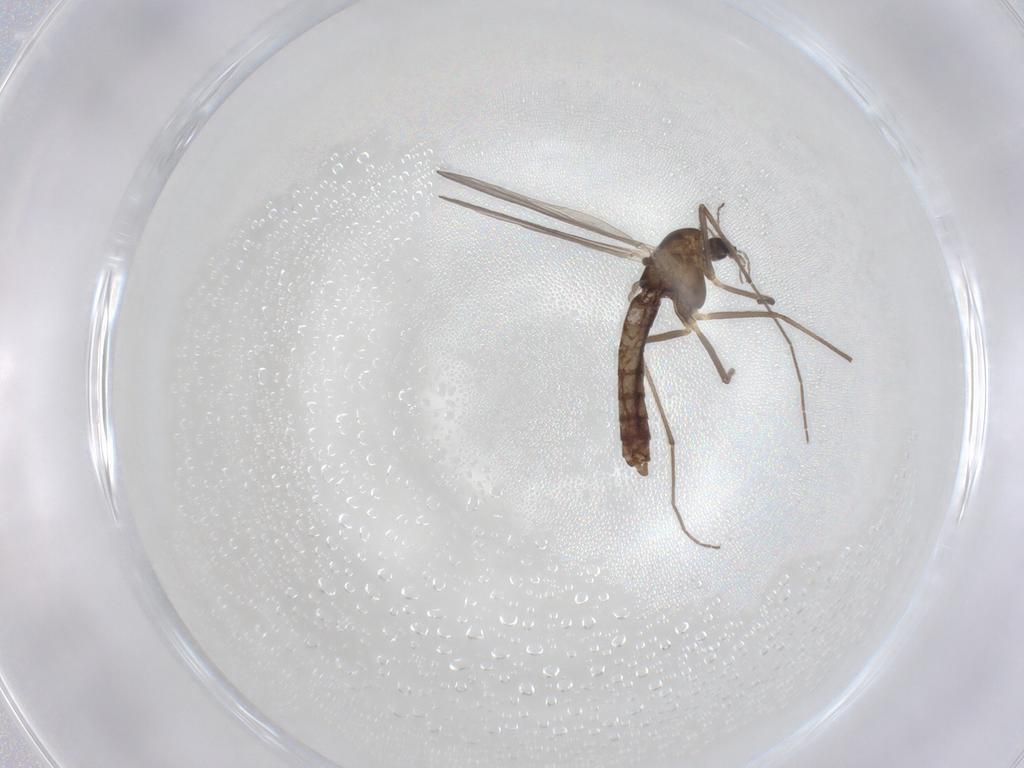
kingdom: Animalia
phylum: Arthropoda
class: Insecta
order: Diptera
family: Chironomidae
